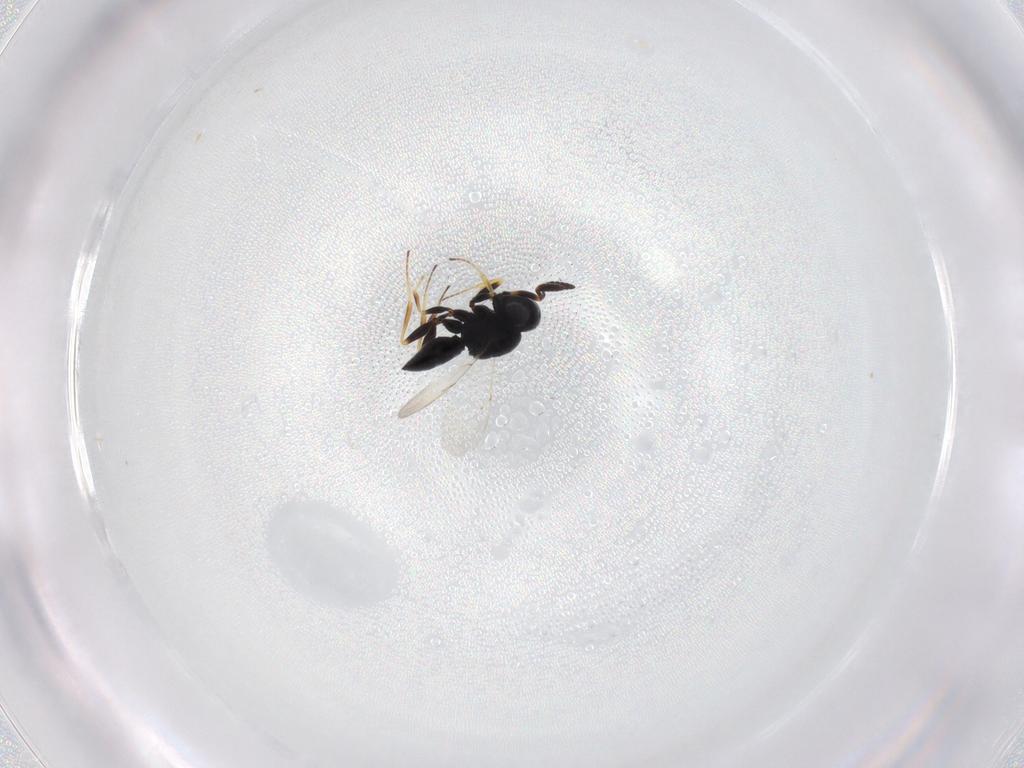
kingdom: Animalia
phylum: Arthropoda
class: Insecta
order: Hymenoptera
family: Scelionidae
